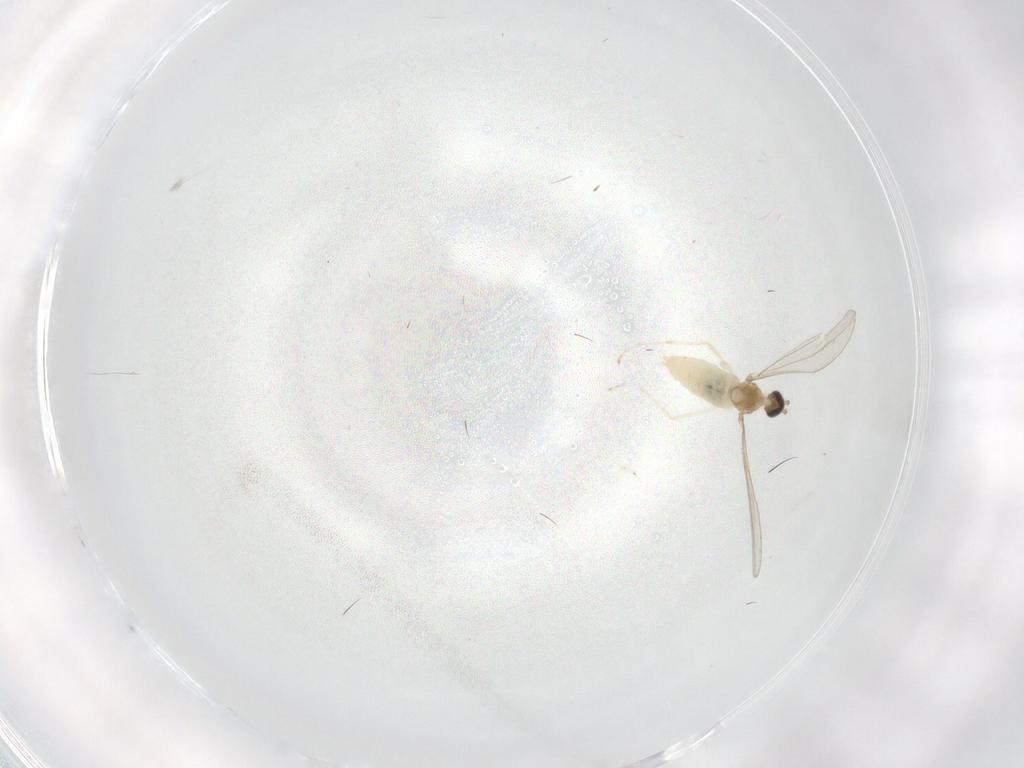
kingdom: Animalia
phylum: Arthropoda
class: Insecta
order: Diptera
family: Cecidomyiidae
